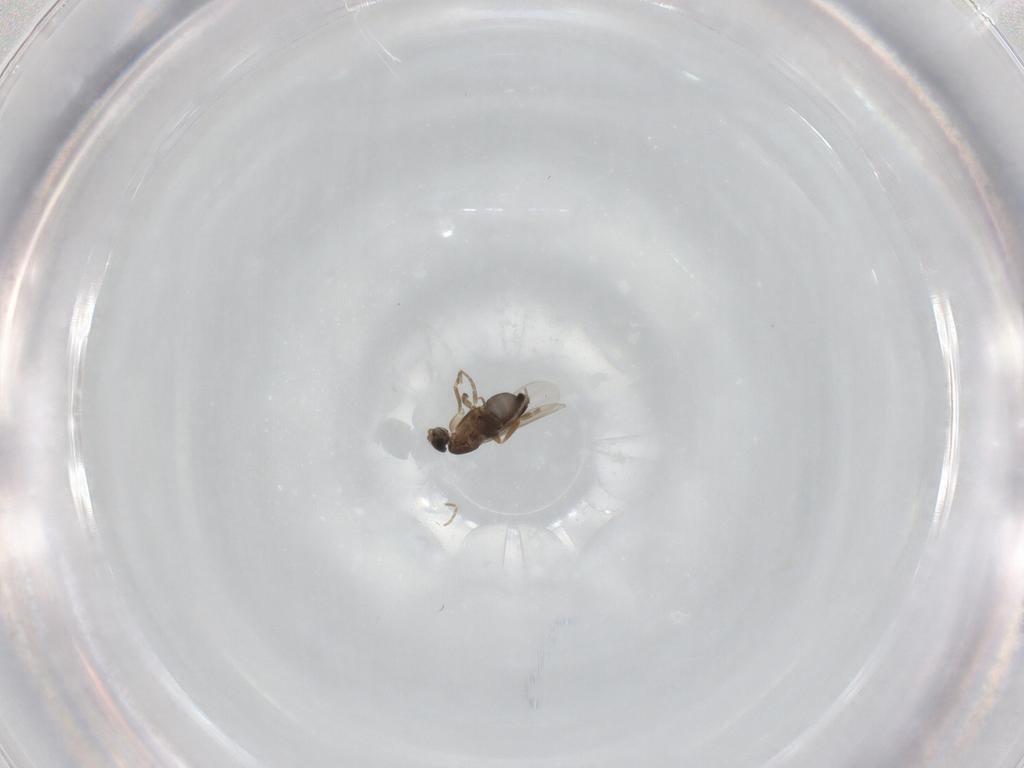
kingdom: Animalia
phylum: Arthropoda
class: Insecta
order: Diptera
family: Phoridae
